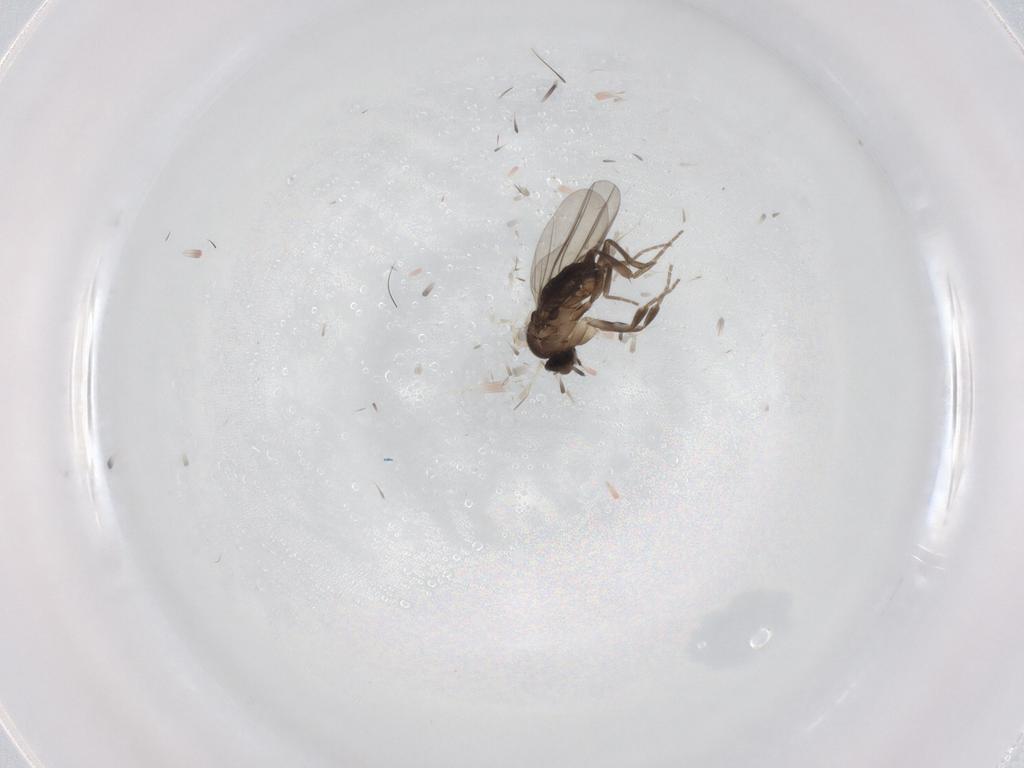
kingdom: Animalia
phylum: Arthropoda
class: Insecta
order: Diptera
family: Phoridae
